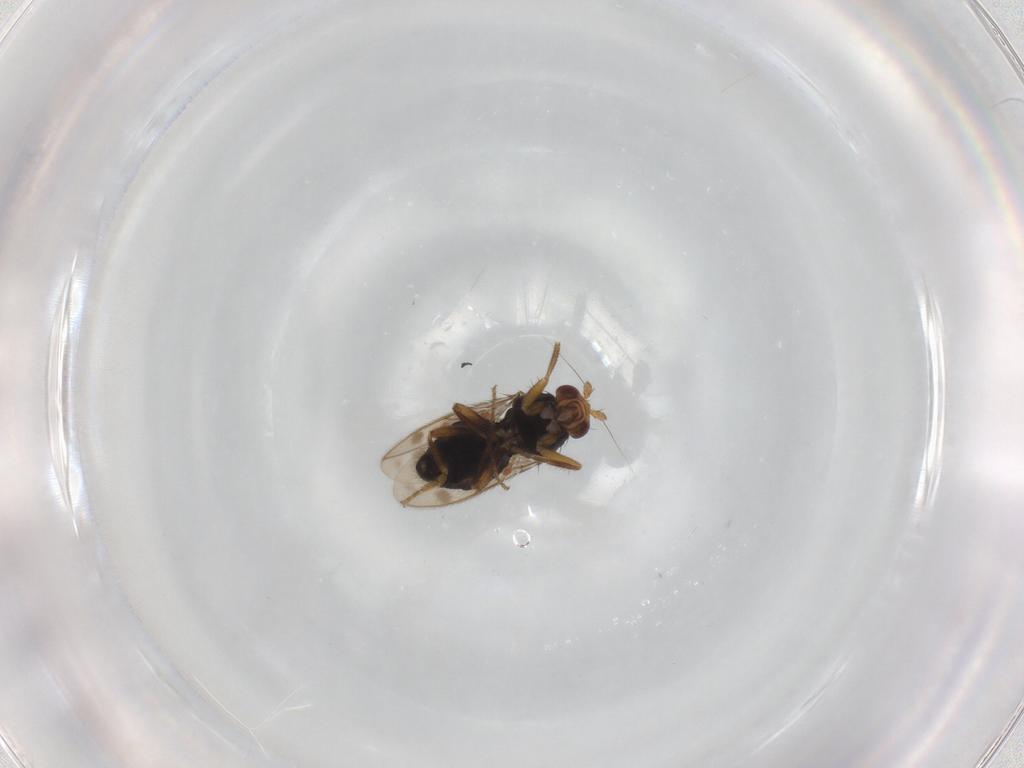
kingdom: Animalia
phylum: Arthropoda
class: Insecta
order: Diptera
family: Sphaeroceridae
